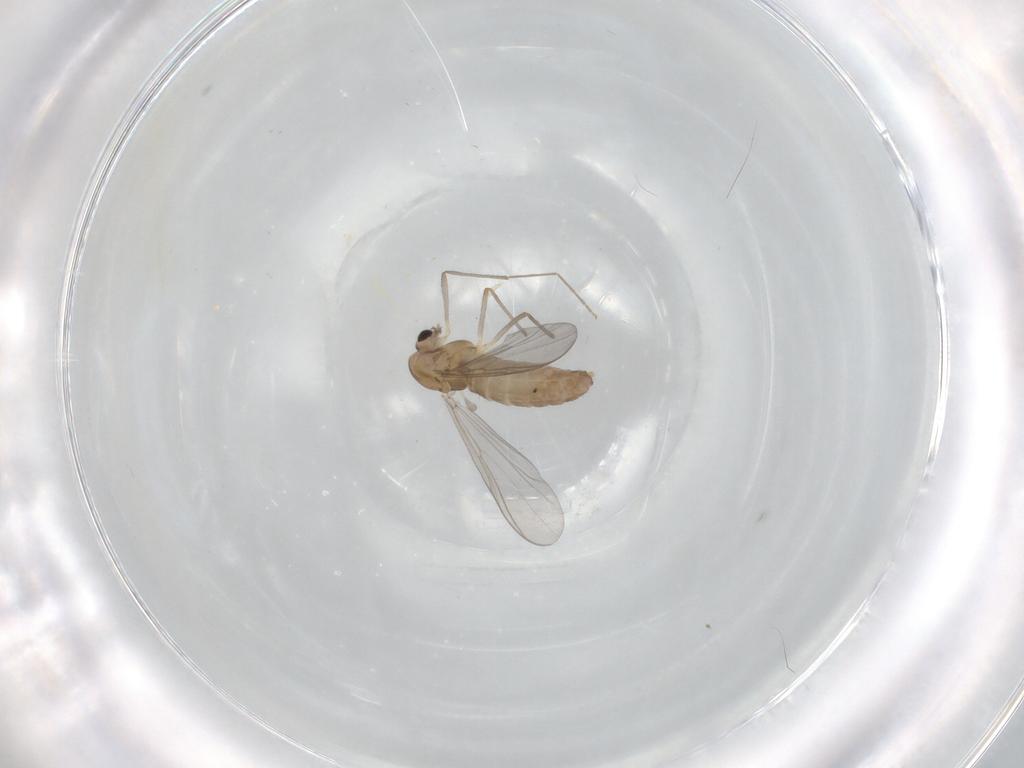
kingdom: Animalia
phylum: Arthropoda
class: Insecta
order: Diptera
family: Chironomidae
